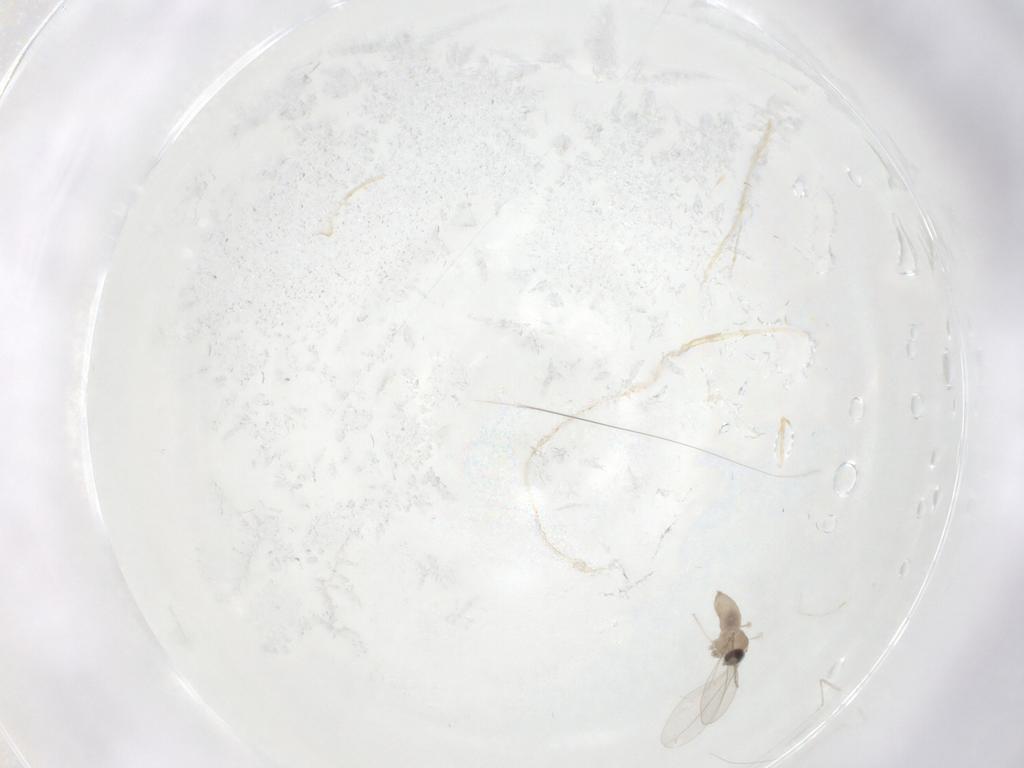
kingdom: Animalia
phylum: Arthropoda
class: Insecta
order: Diptera
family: Cecidomyiidae
